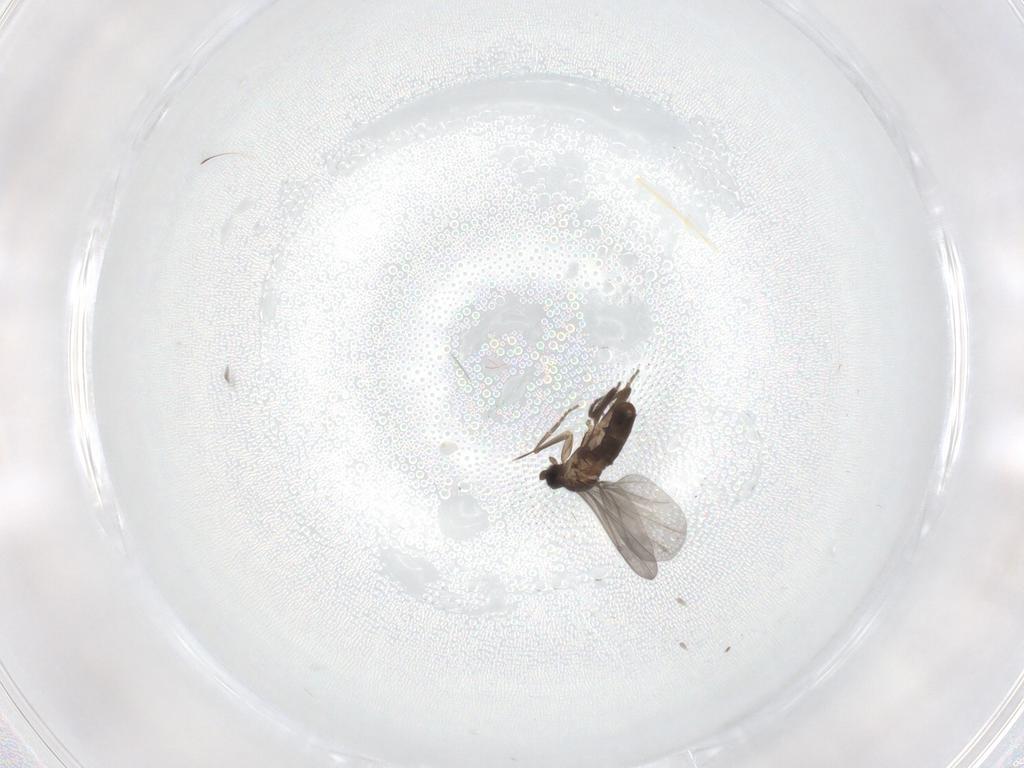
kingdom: Animalia
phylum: Arthropoda
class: Insecta
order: Diptera
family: Phoridae
